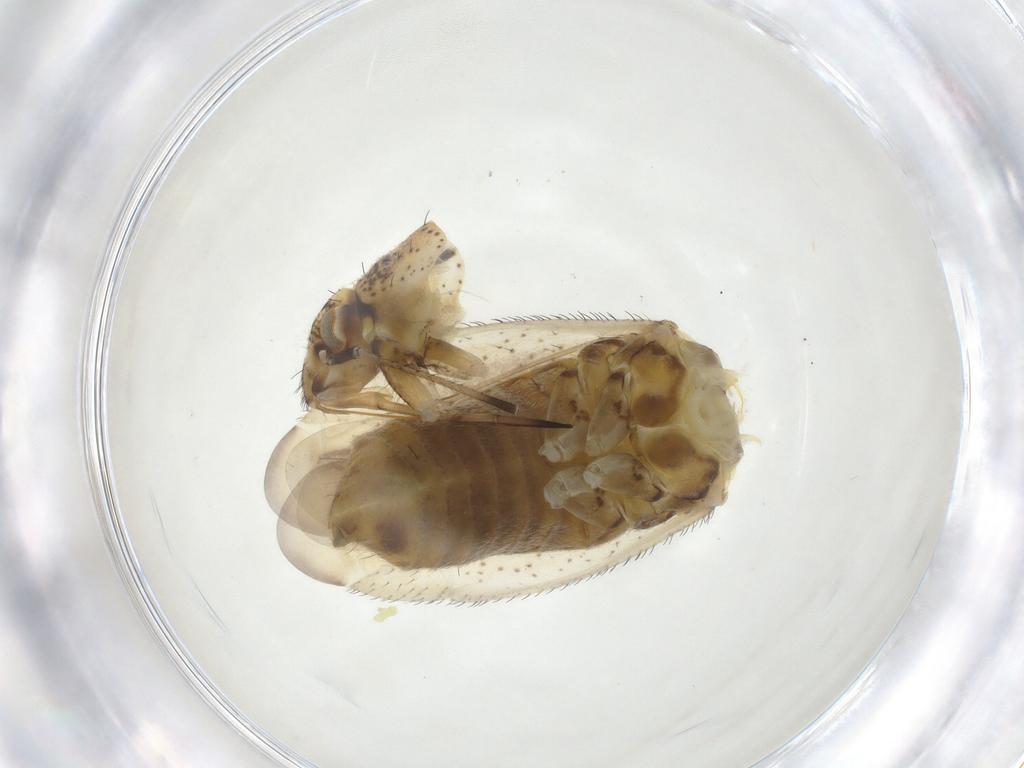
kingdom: Animalia
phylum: Arthropoda
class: Insecta
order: Hemiptera
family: Miridae
